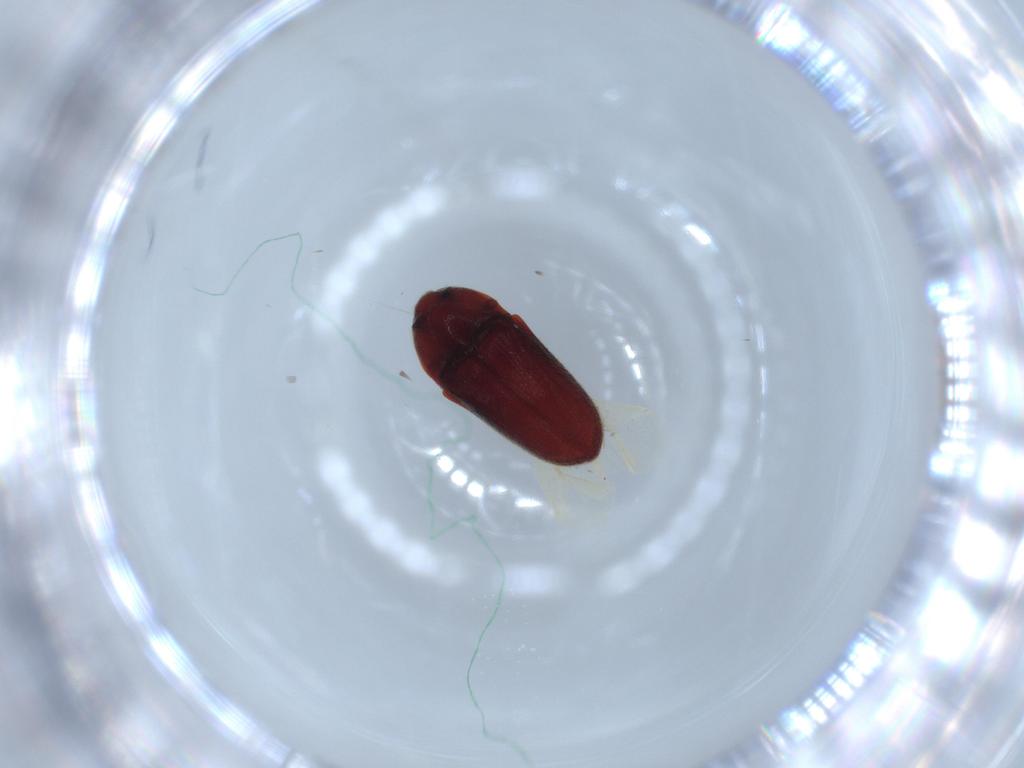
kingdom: Animalia
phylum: Arthropoda
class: Insecta
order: Coleoptera
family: Throscidae
